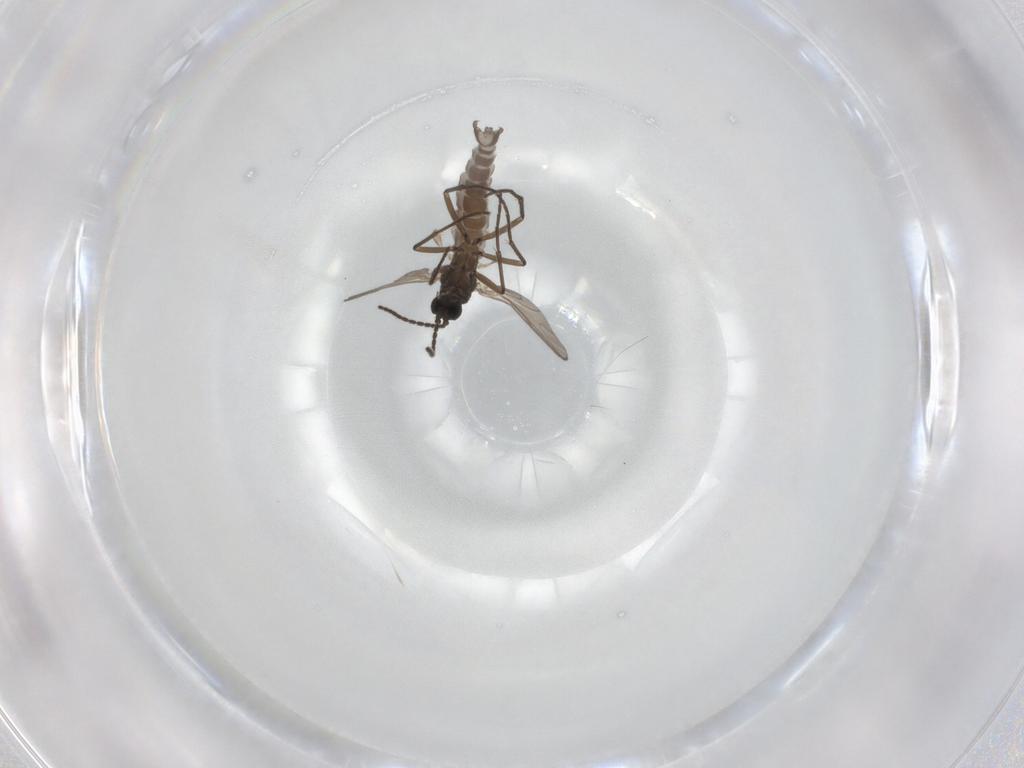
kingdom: Animalia
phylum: Arthropoda
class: Insecta
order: Diptera
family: Sciaridae
